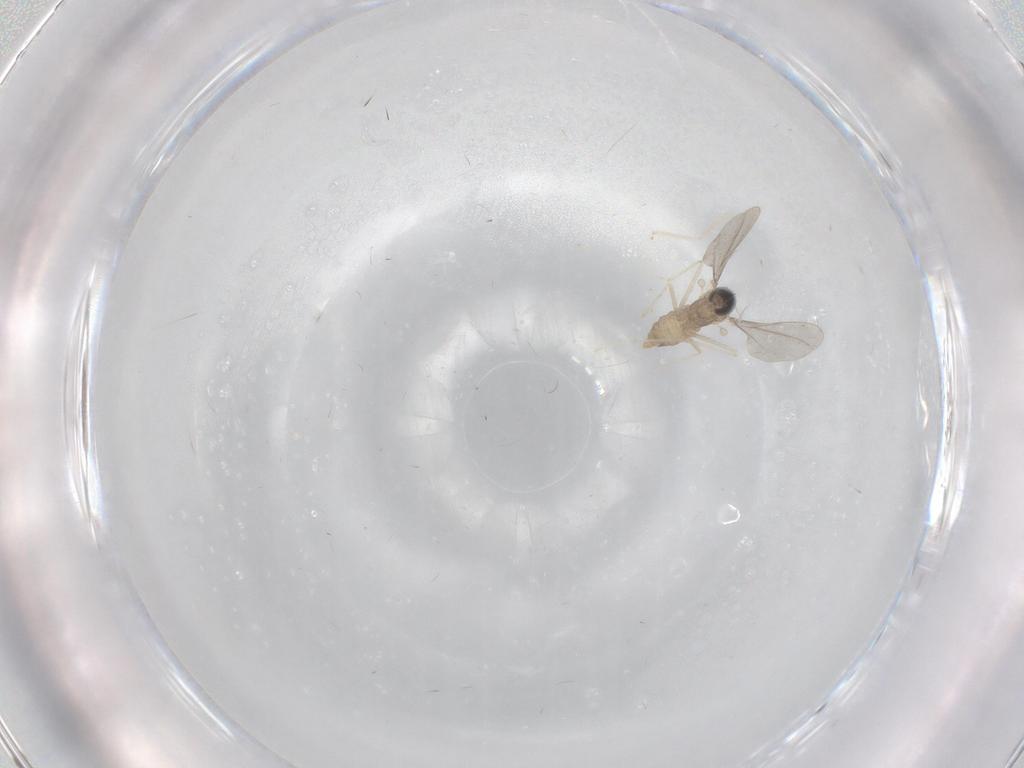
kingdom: Animalia
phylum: Arthropoda
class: Insecta
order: Diptera
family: Cecidomyiidae
